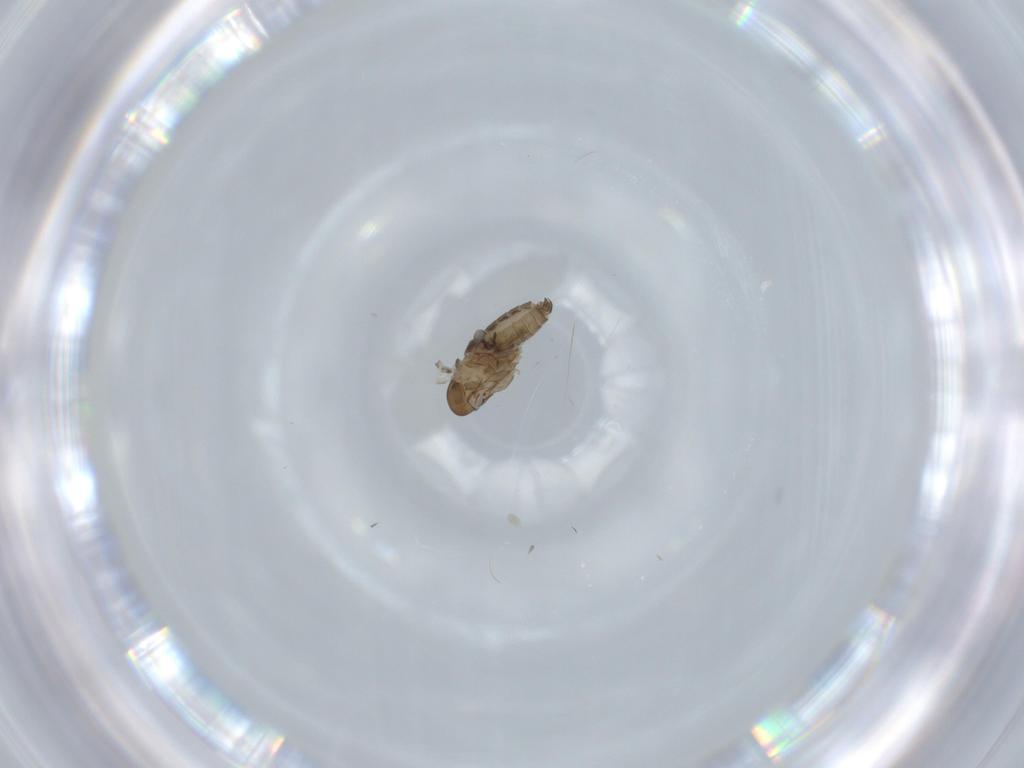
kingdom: Animalia
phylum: Arthropoda
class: Insecta
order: Diptera
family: Psychodidae
